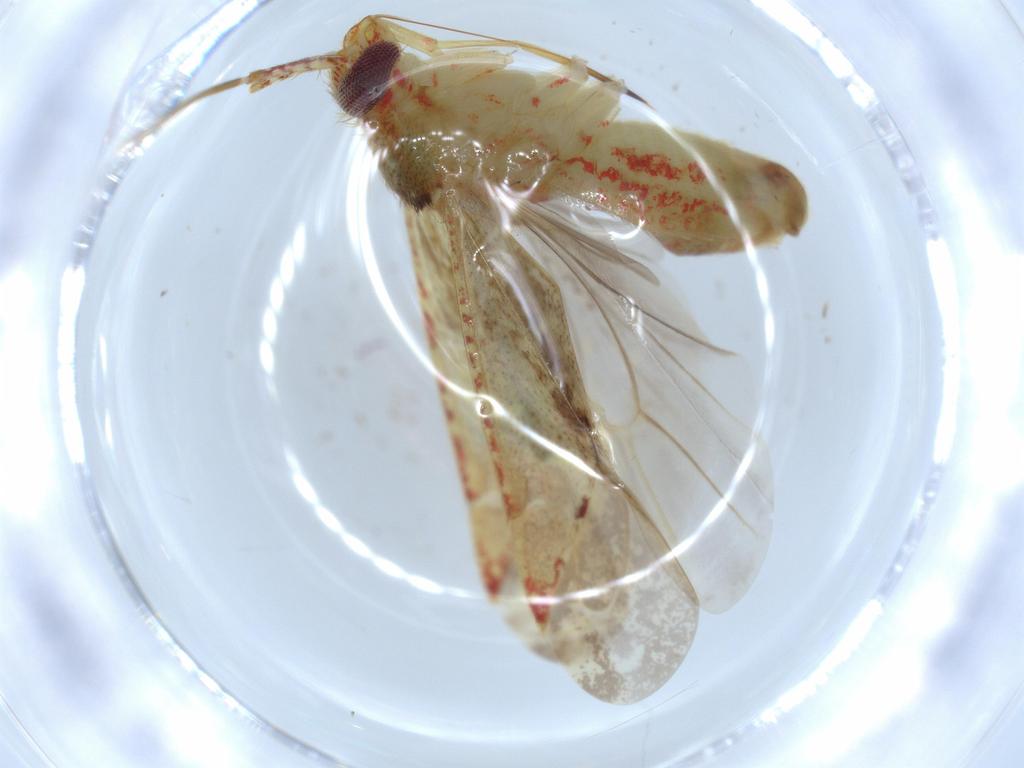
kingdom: Animalia
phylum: Arthropoda
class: Insecta
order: Hemiptera
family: Miridae
